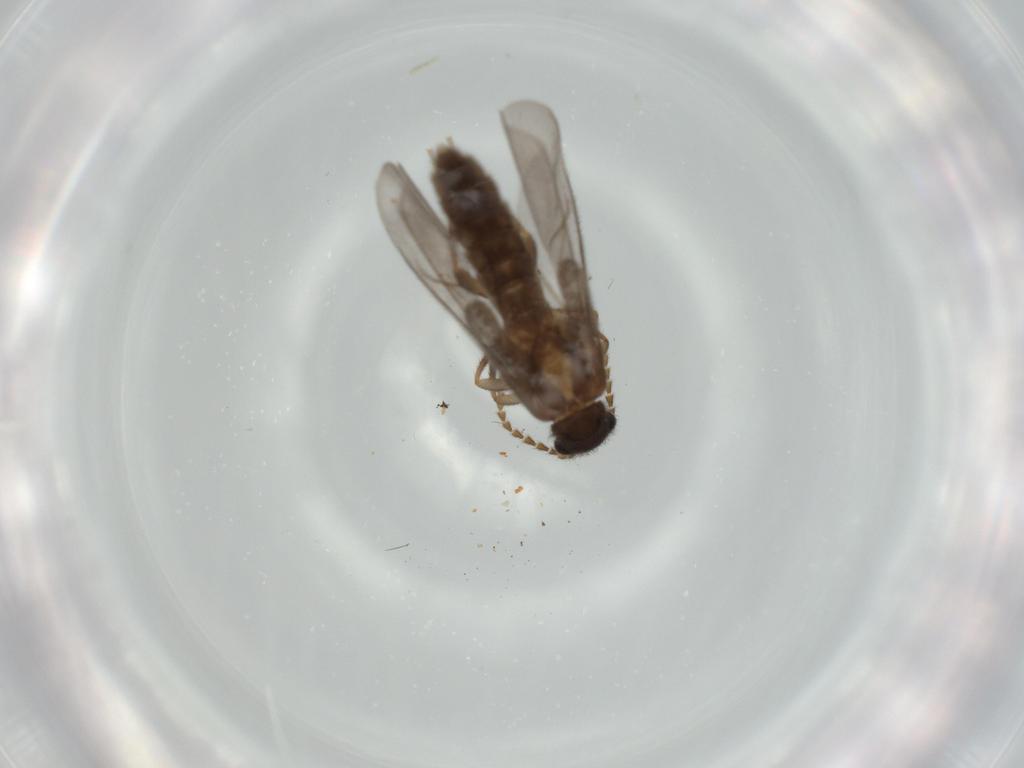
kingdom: Animalia
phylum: Arthropoda
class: Insecta
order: Coleoptera
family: Omethidae
